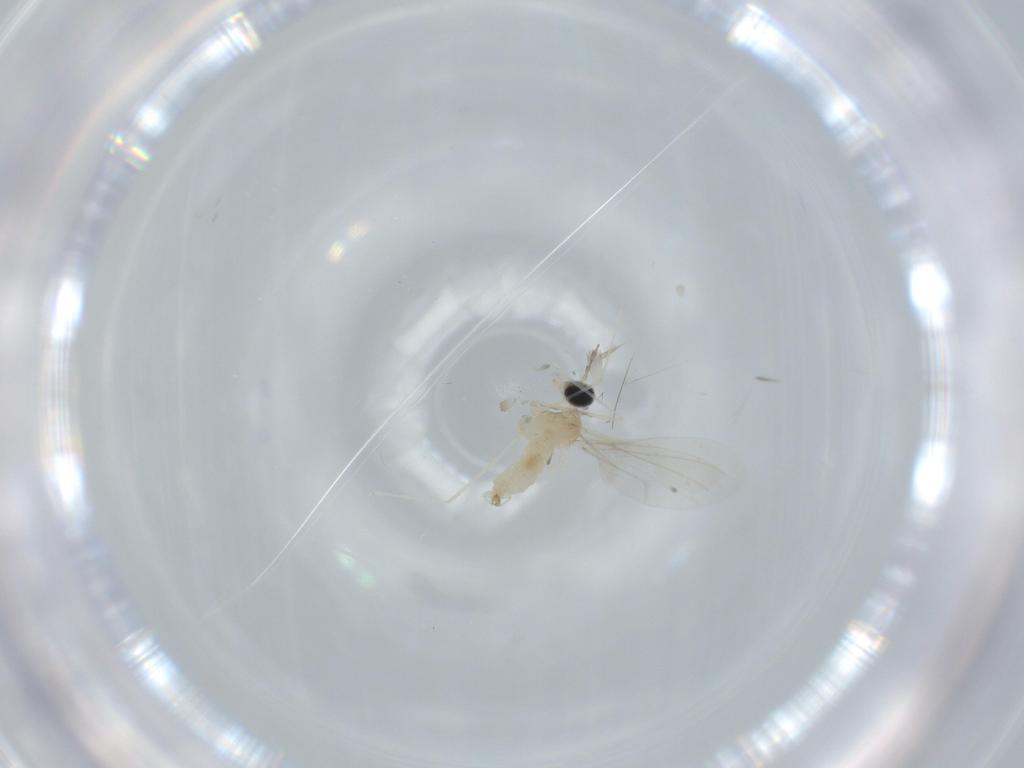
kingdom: Animalia
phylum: Arthropoda
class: Insecta
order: Diptera
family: Cecidomyiidae
